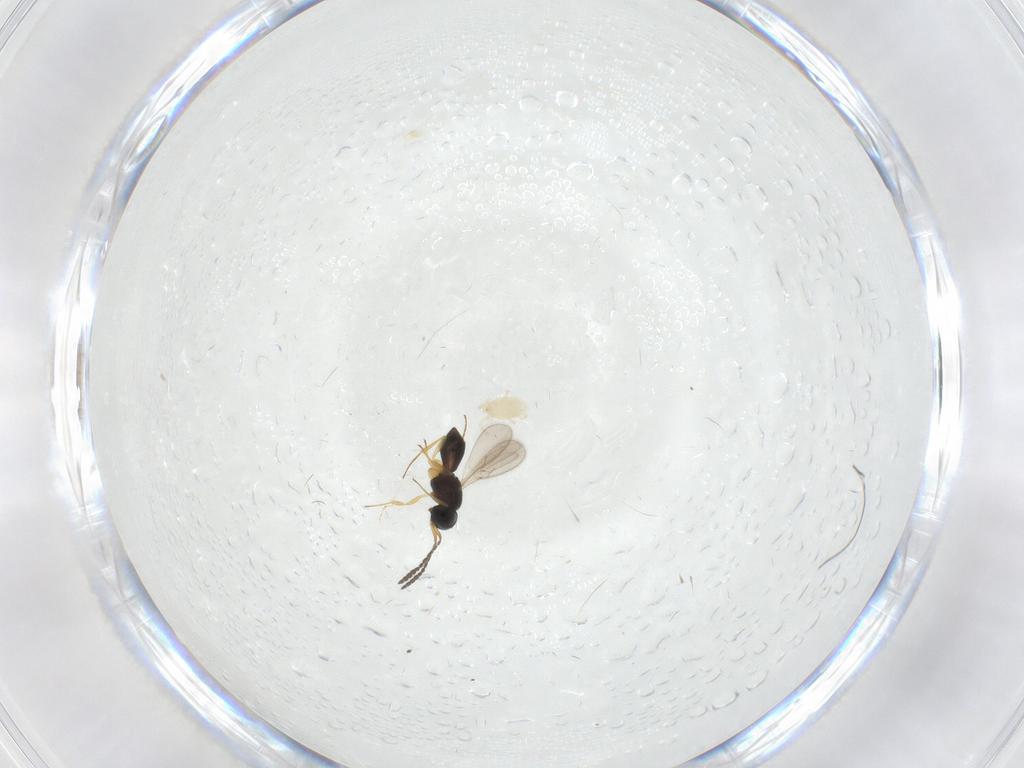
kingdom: Animalia
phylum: Arthropoda
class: Insecta
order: Hymenoptera
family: Scelionidae
